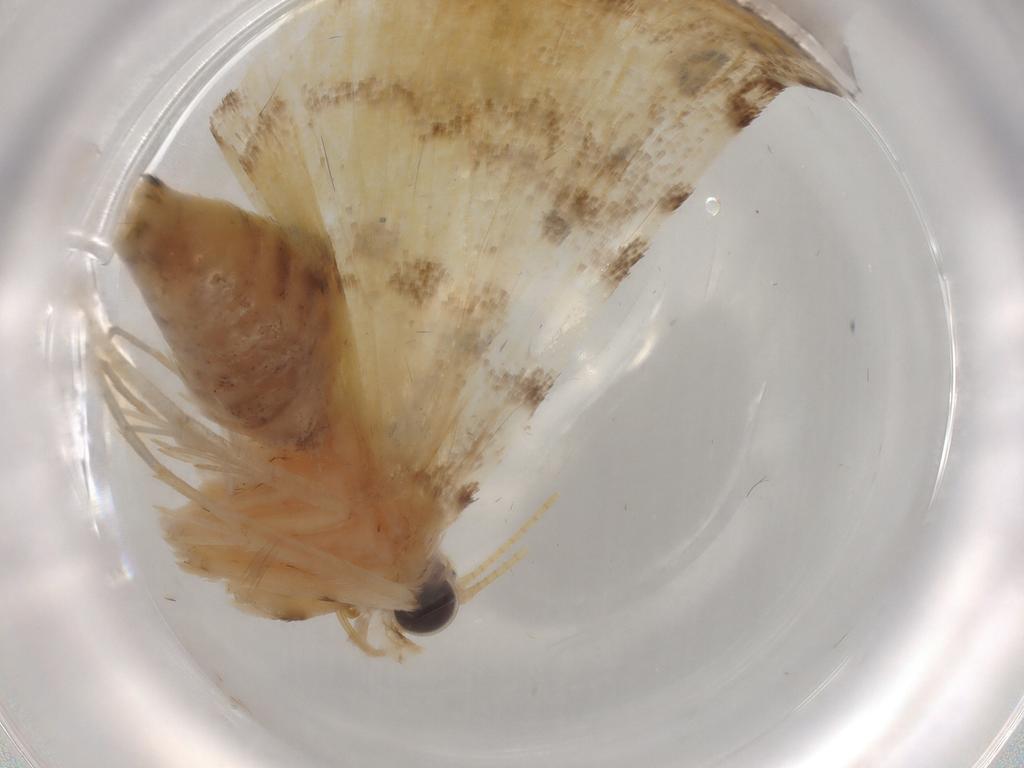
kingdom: Animalia
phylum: Arthropoda
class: Insecta
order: Lepidoptera
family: Crambidae
